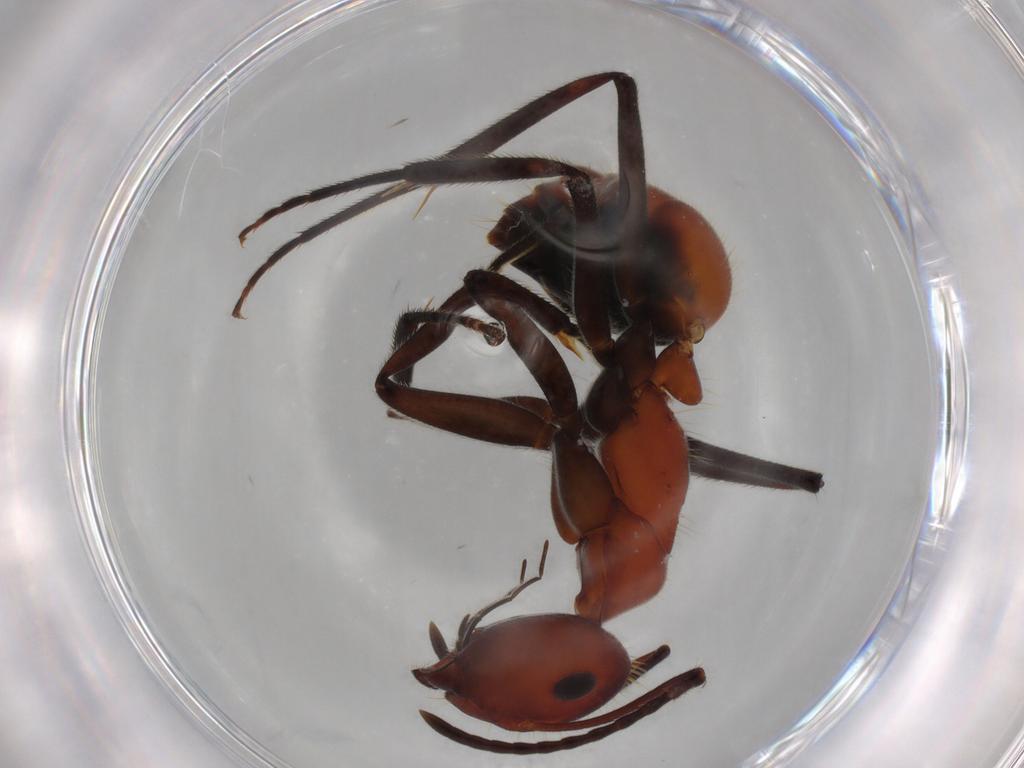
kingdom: Animalia
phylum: Arthropoda
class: Insecta
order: Hymenoptera
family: Formicidae
